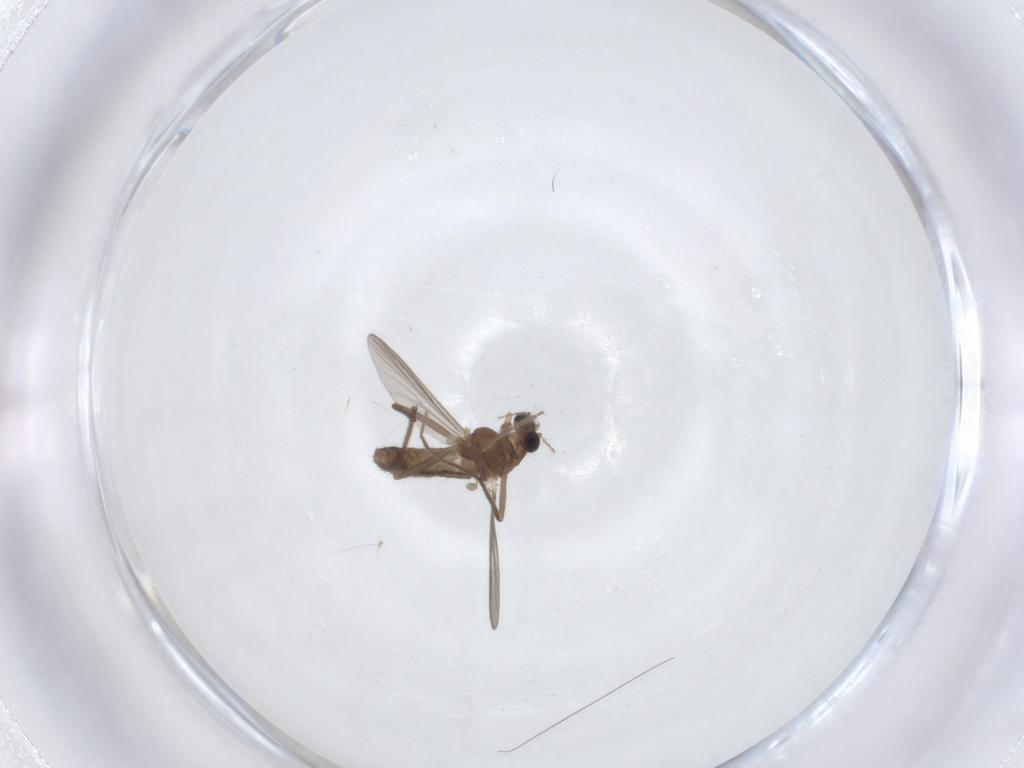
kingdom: Animalia
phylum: Arthropoda
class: Insecta
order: Diptera
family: Chironomidae
